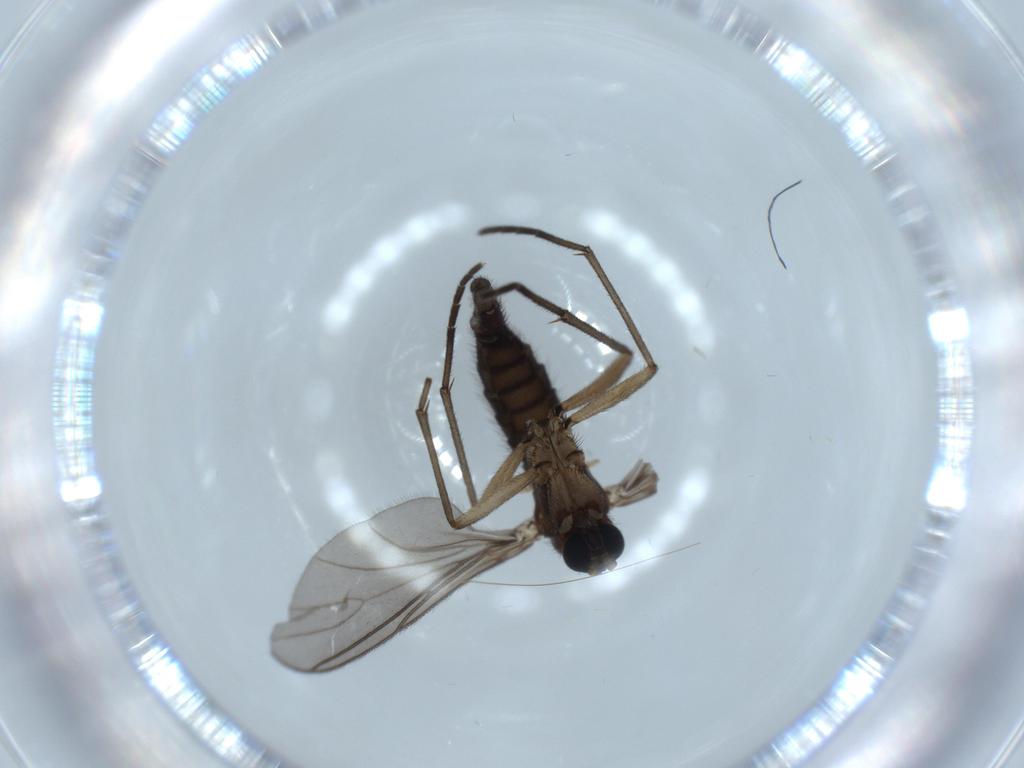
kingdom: Animalia
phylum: Arthropoda
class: Insecta
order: Diptera
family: Sciaridae
